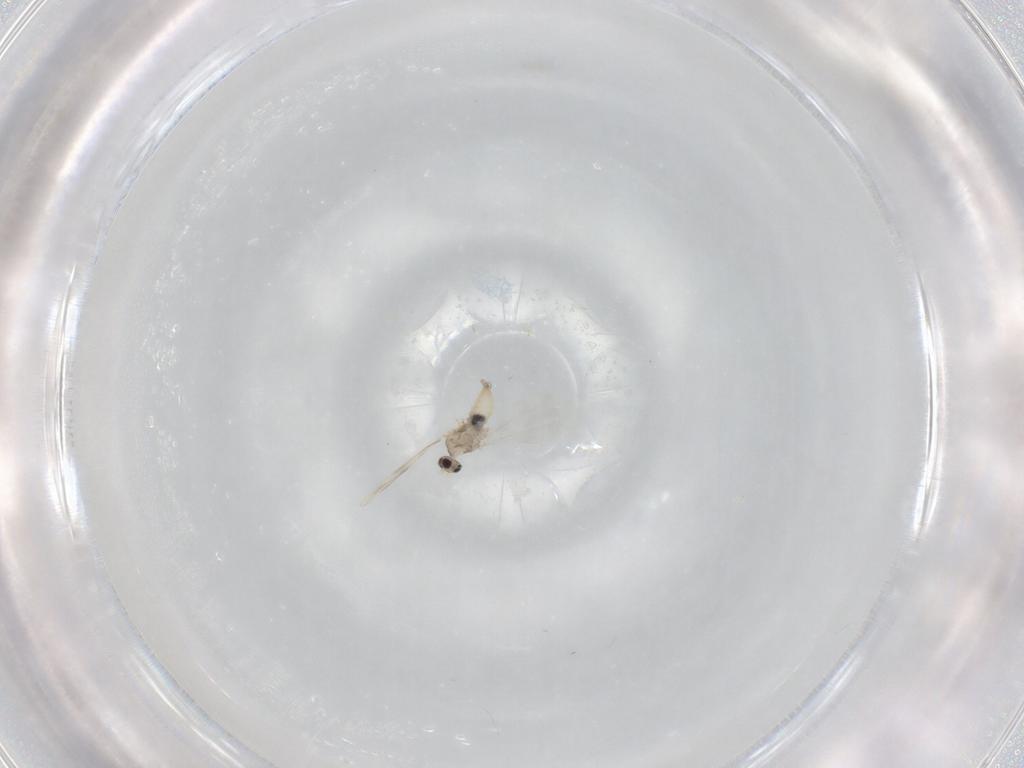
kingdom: Animalia
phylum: Arthropoda
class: Insecta
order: Diptera
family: Cecidomyiidae
